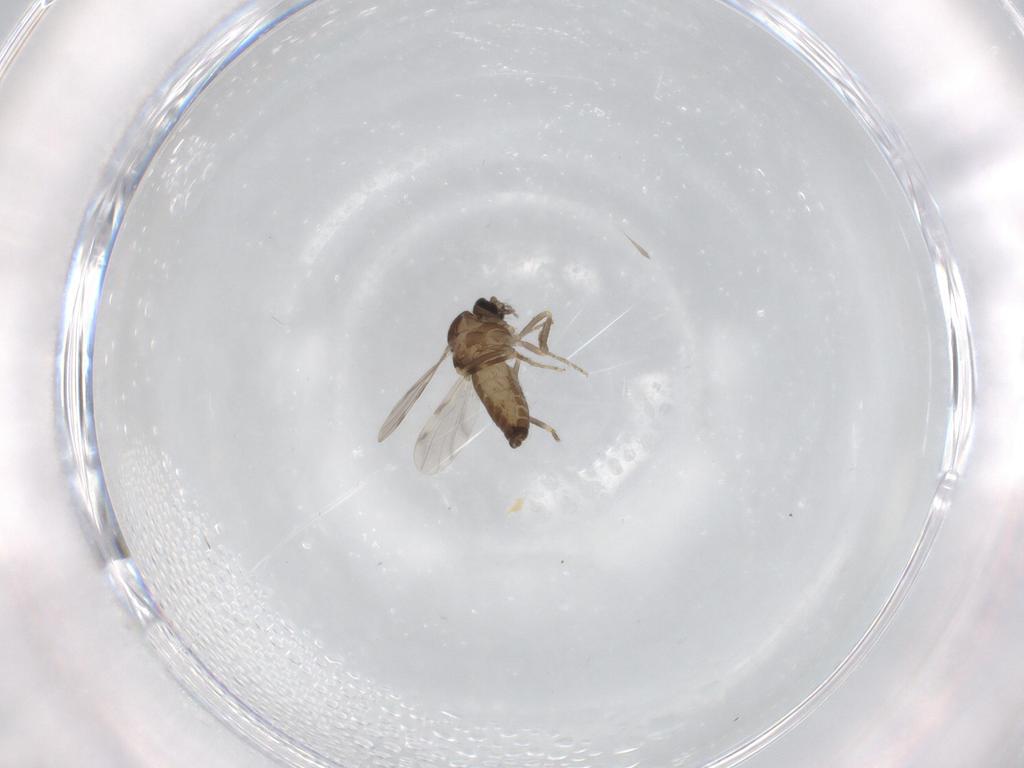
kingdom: Animalia
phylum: Arthropoda
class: Insecta
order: Diptera
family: Ceratopogonidae
